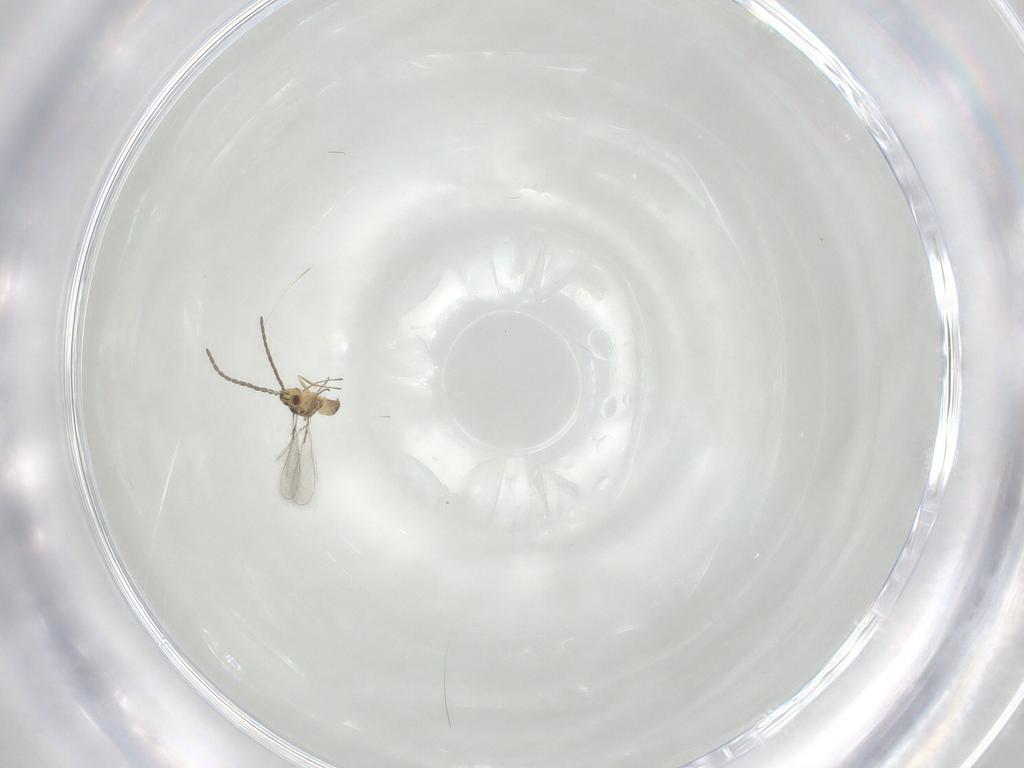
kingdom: Animalia
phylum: Arthropoda
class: Insecta
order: Hymenoptera
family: Mymaridae
